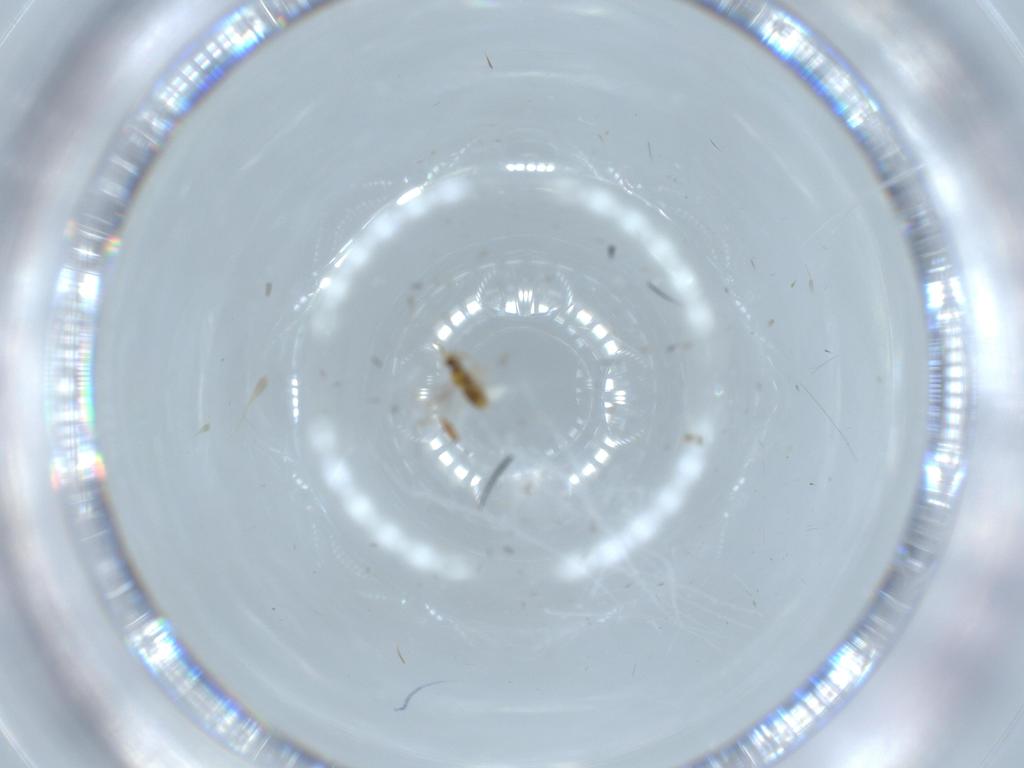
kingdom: Animalia
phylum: Arthropoda
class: Insecta
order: Hymenoptera
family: Aphelinidae
